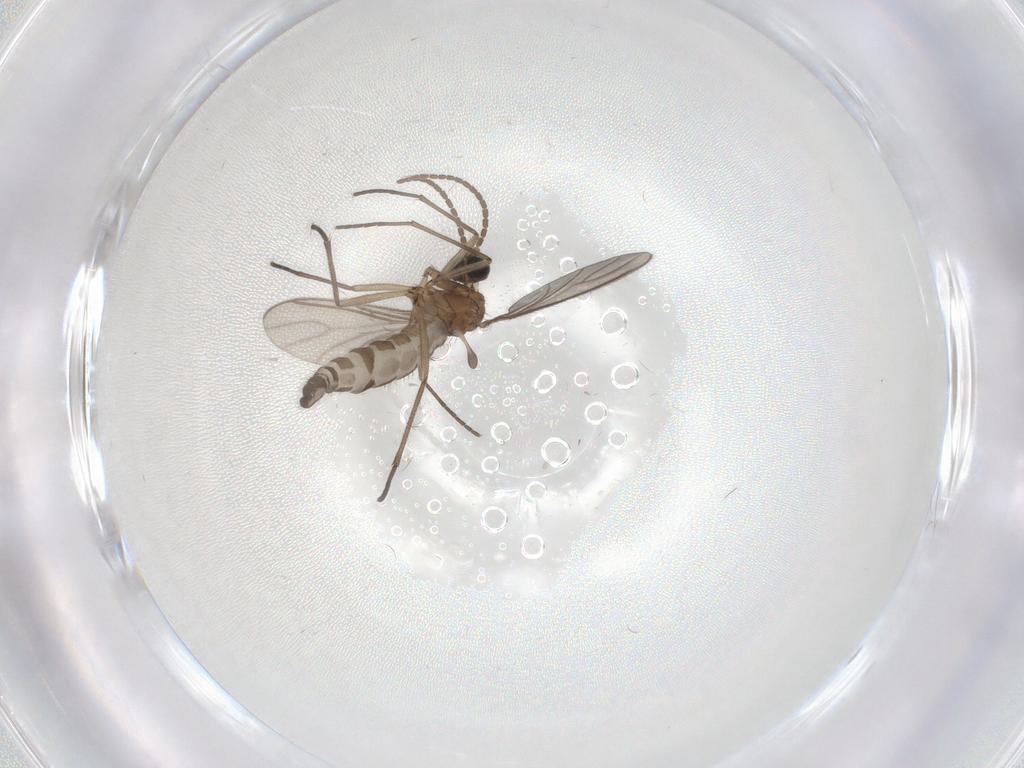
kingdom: Animalia
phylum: Arthropoda
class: Insecta
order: Diptera
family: Sciaridae
